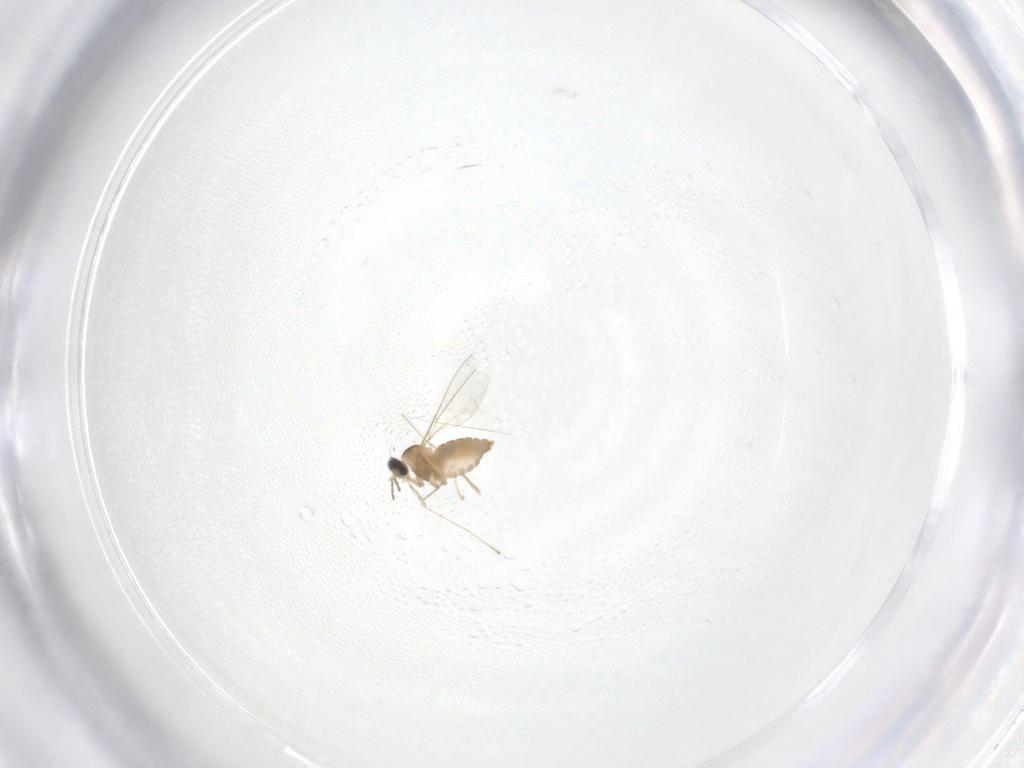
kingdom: Animalia
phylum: Arthropoda
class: Insecta
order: Diptera
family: Cecidomyiidae
